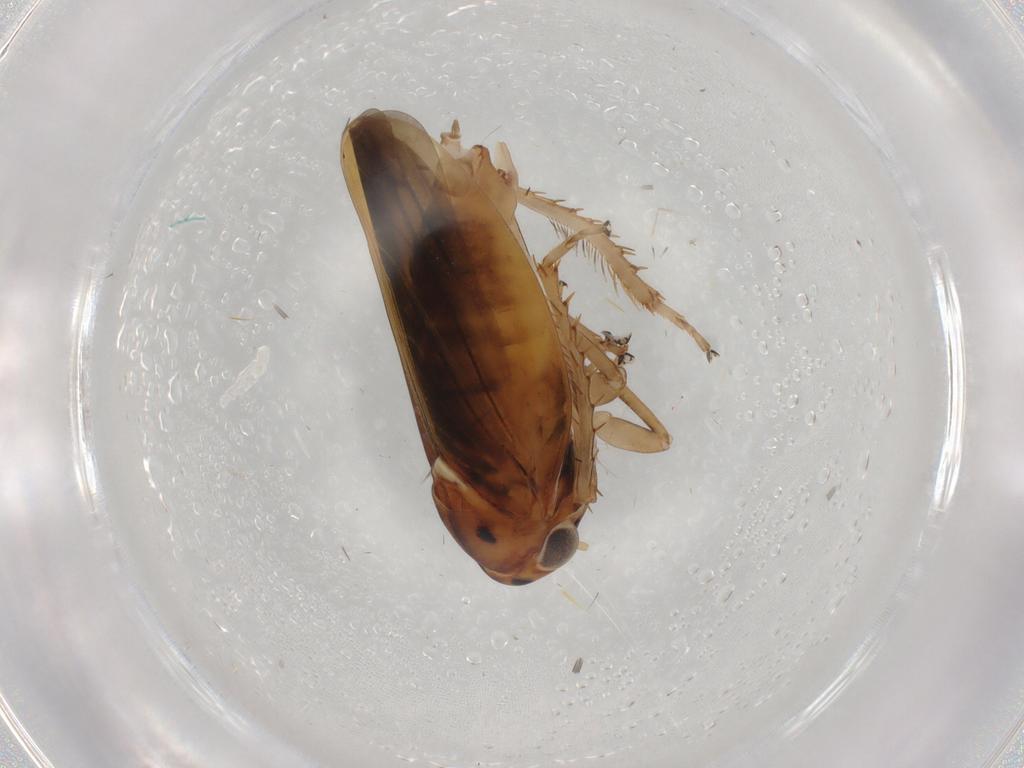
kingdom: Animalia
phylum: Arthropoda
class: Insecta
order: Hemiptera
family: Cicadellidae
